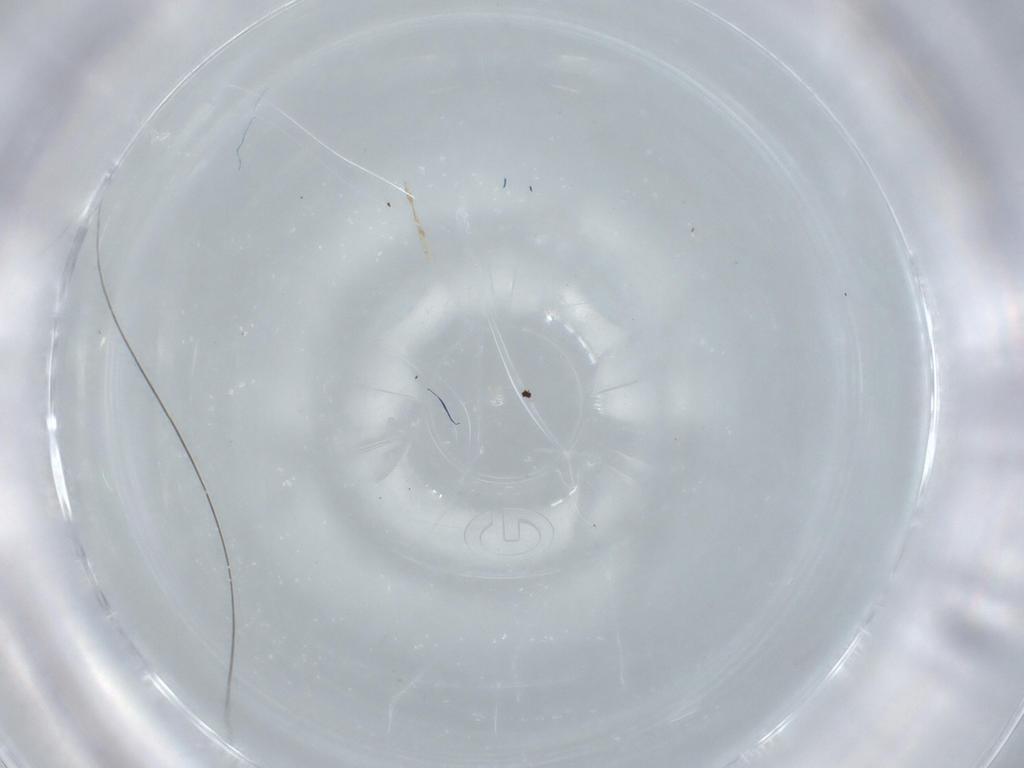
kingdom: Animalia
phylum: Arthropoda
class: Insecta
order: Hymenoptera
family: Mymaridae
